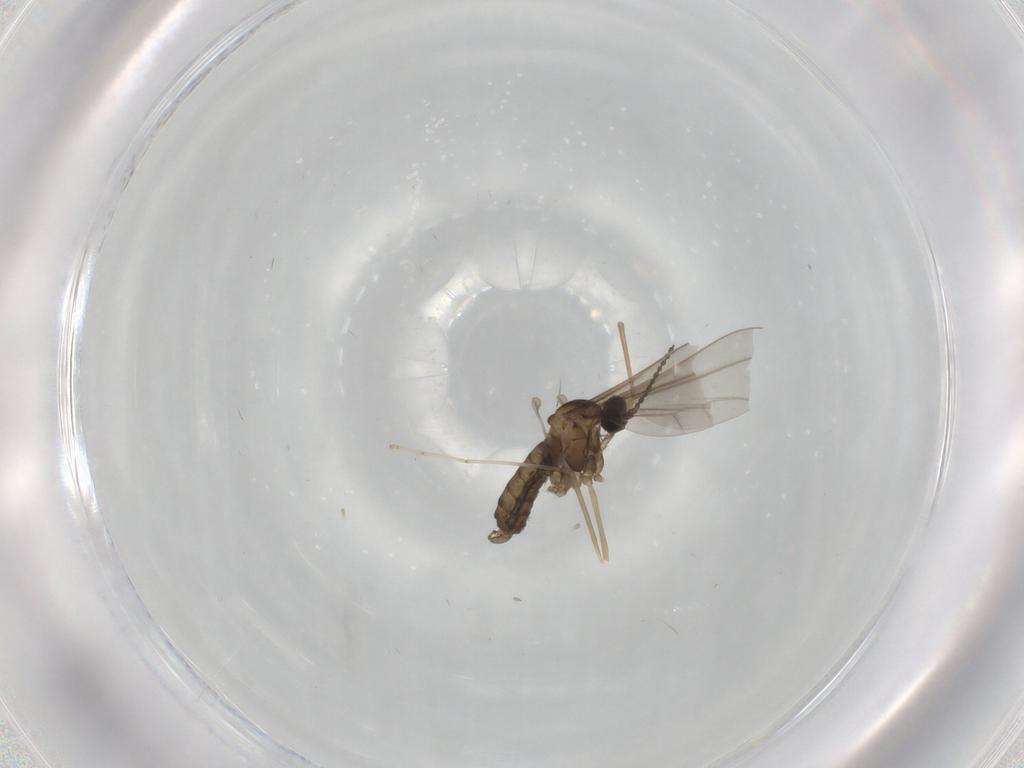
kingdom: Animalia
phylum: Arthropoda
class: Insecta
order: Diptera
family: Cecidomyiidae
